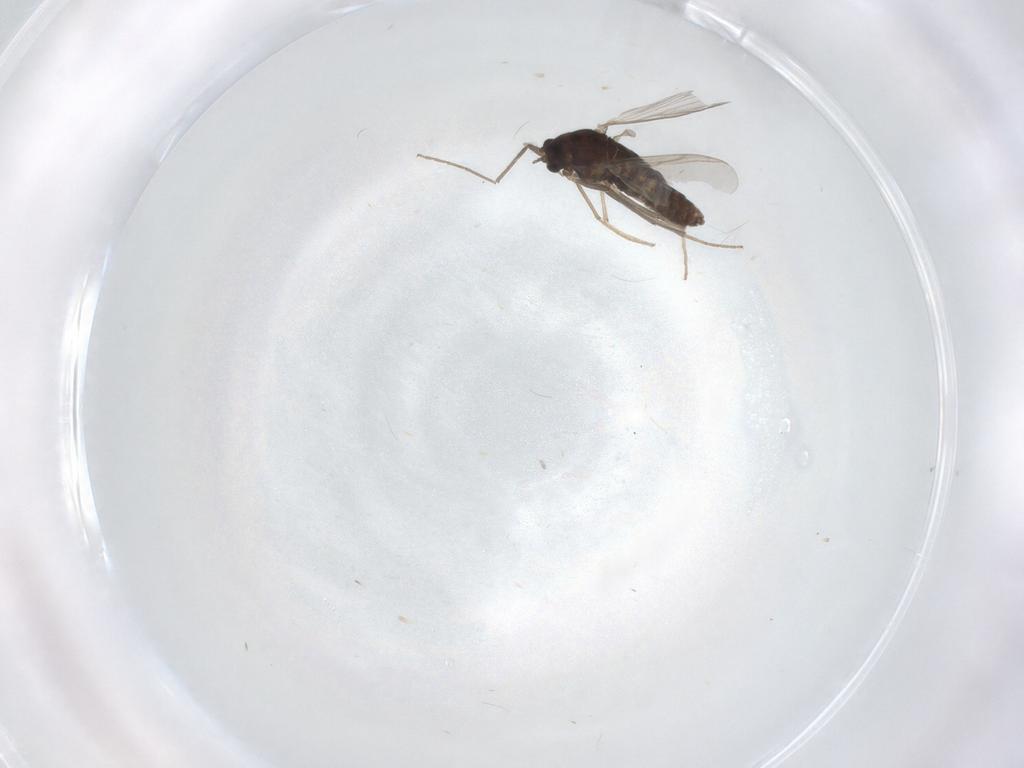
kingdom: Animalia
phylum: Arthropoda
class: Insecta
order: Diptera
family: Chironomidae
